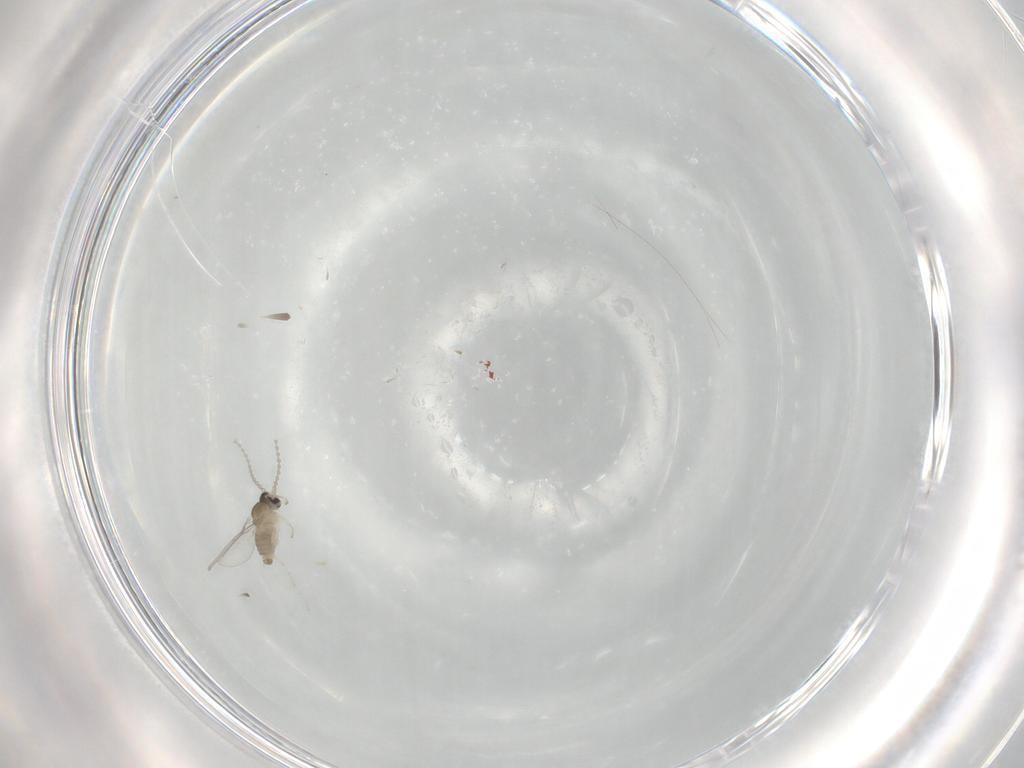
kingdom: Animalia
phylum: Arthropoda
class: Insecta
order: Diptera
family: Cecidomyiidae
